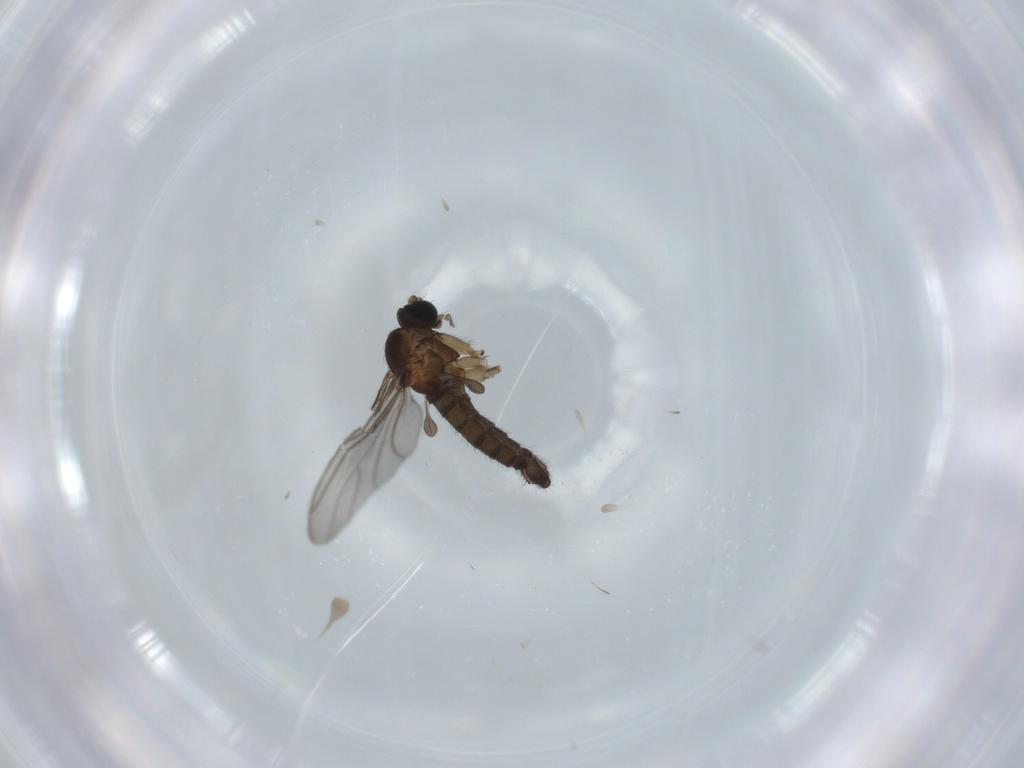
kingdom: Animalia
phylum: Arthropoda
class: Insecta
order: Diptera
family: Sciaridae
